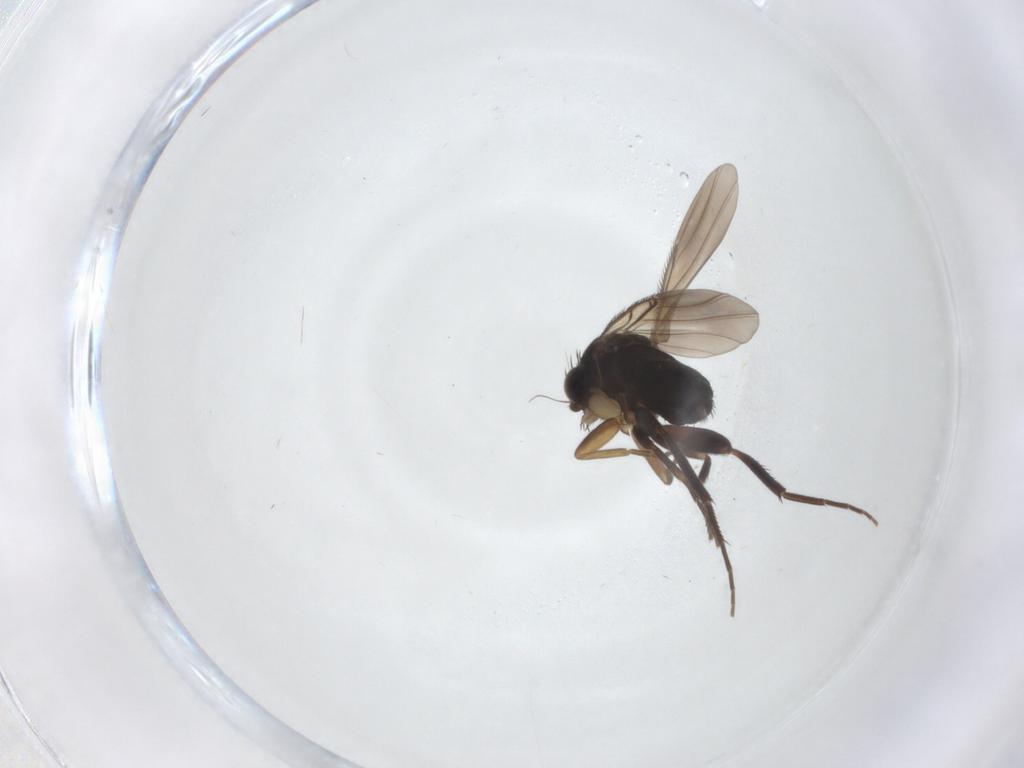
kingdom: Animalia
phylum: Arthropoda
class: Insecta
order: Diptera
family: Phoridae
